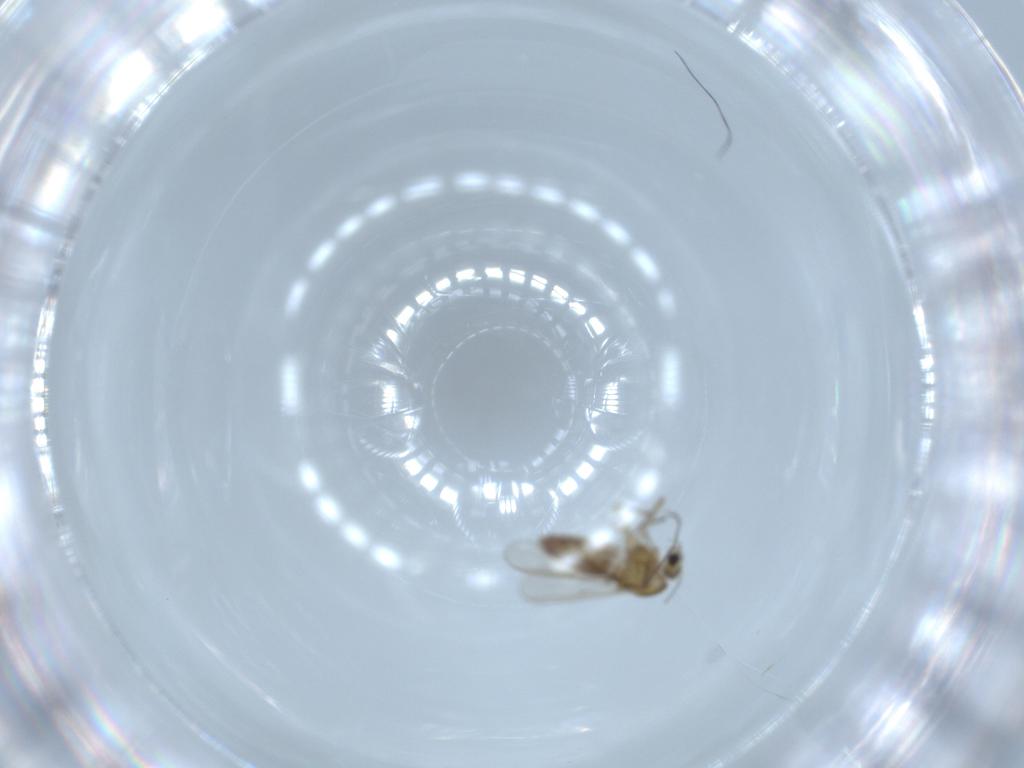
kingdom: Animalia
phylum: Arthropoda
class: Insecta
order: Diptera
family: Chironomidae
